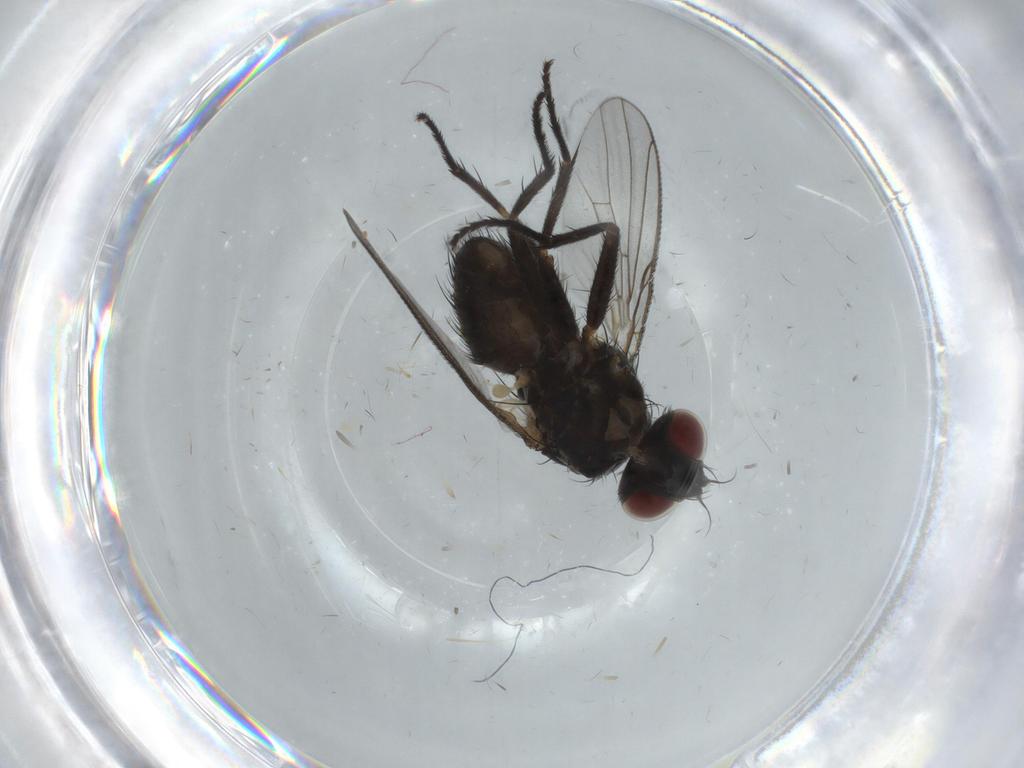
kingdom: Animalia
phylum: Arthropoda
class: Insecta
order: Diptera
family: Muscidae
